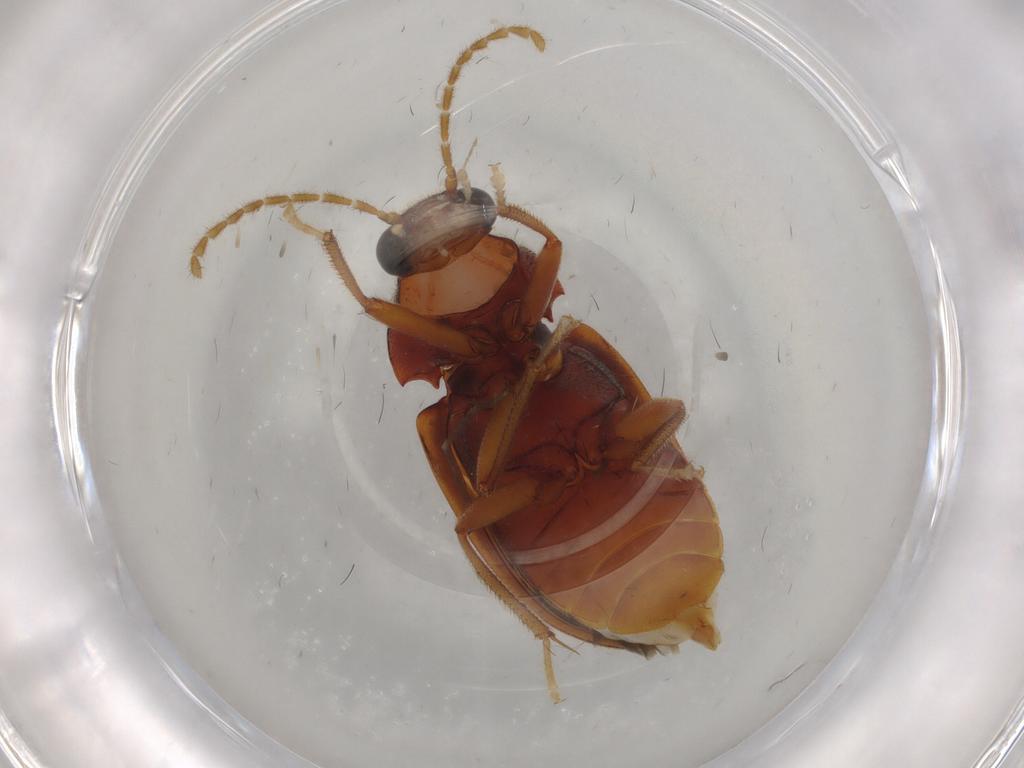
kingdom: Animalia
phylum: Arthropoda
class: Insecta
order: Coleoptera
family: Ptilodactylidae
